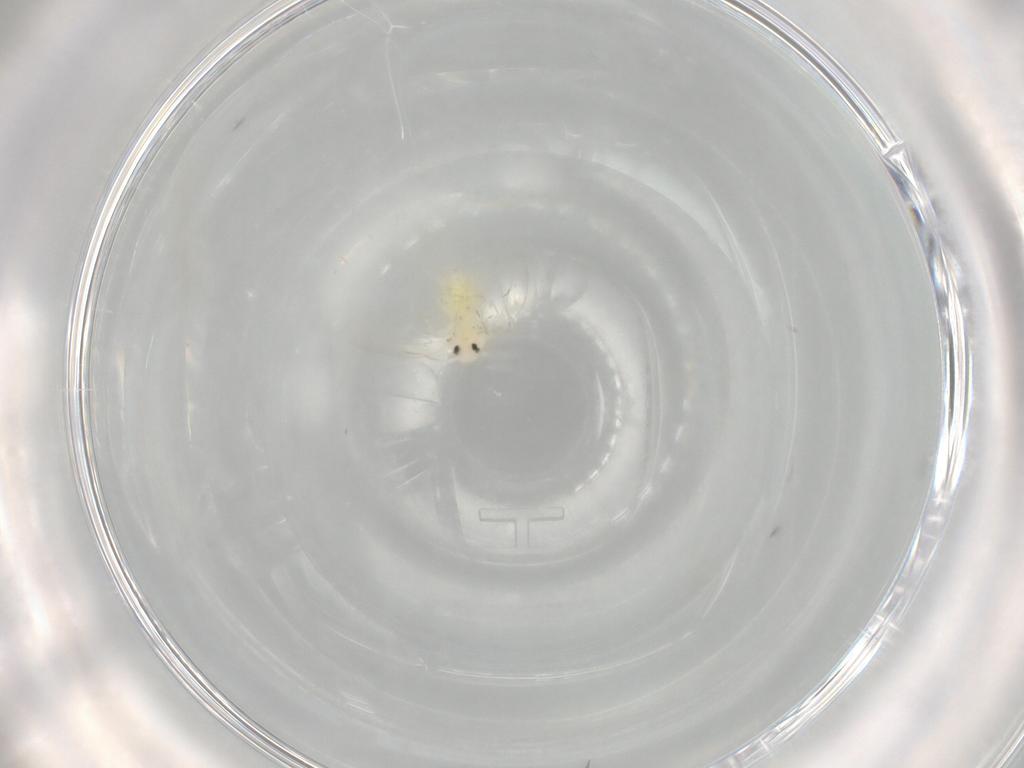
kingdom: Animalia
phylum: Arthropoda
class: Insecta
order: Hemiptera
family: Aleyrodidae
